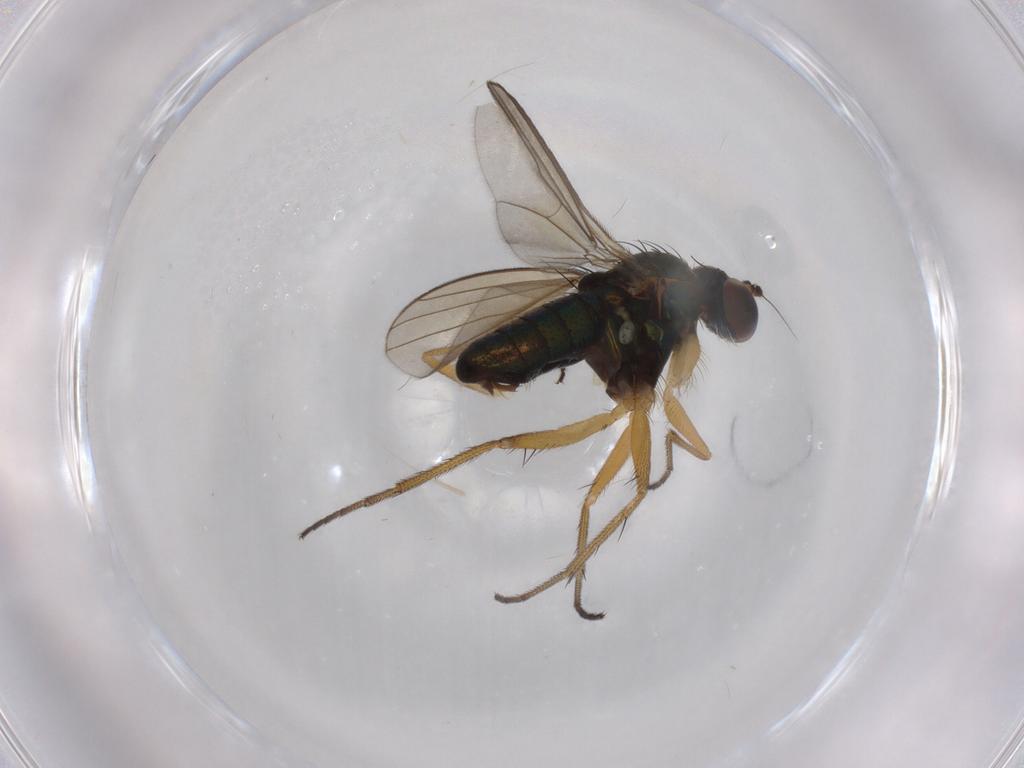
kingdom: Animalia
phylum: Arthropoda
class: Insecta
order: Diptera
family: Dolichopodidae
